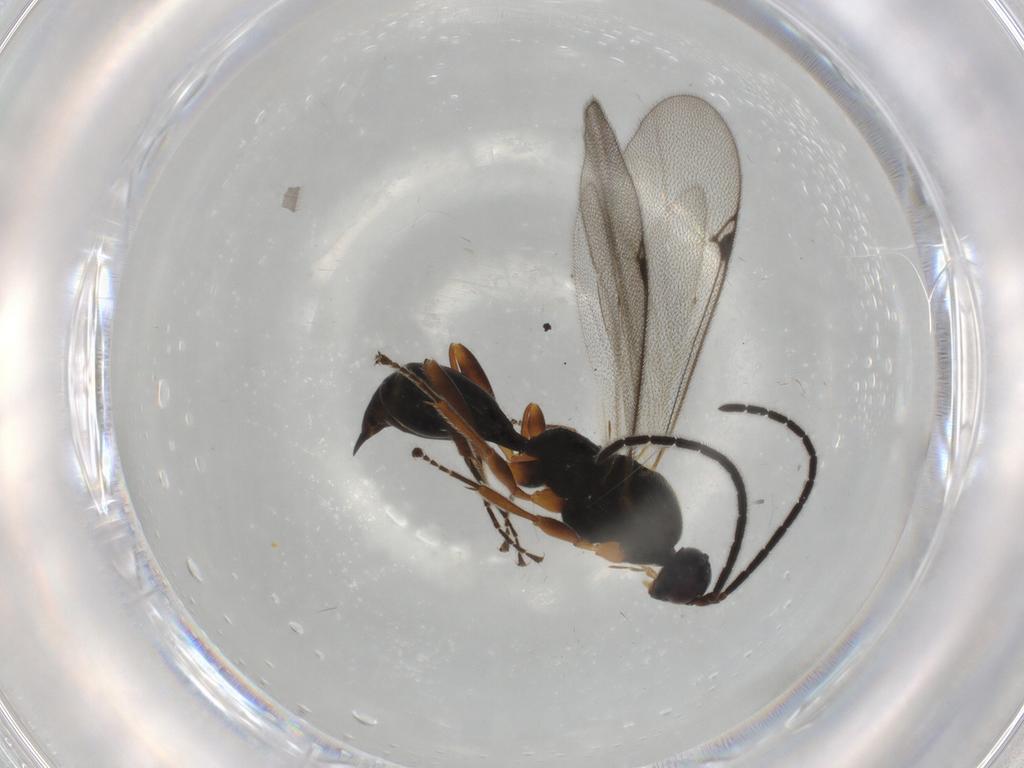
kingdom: Animalia
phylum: Arthropoda
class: Insecta
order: Hymenoptera
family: Proctotrupidae
